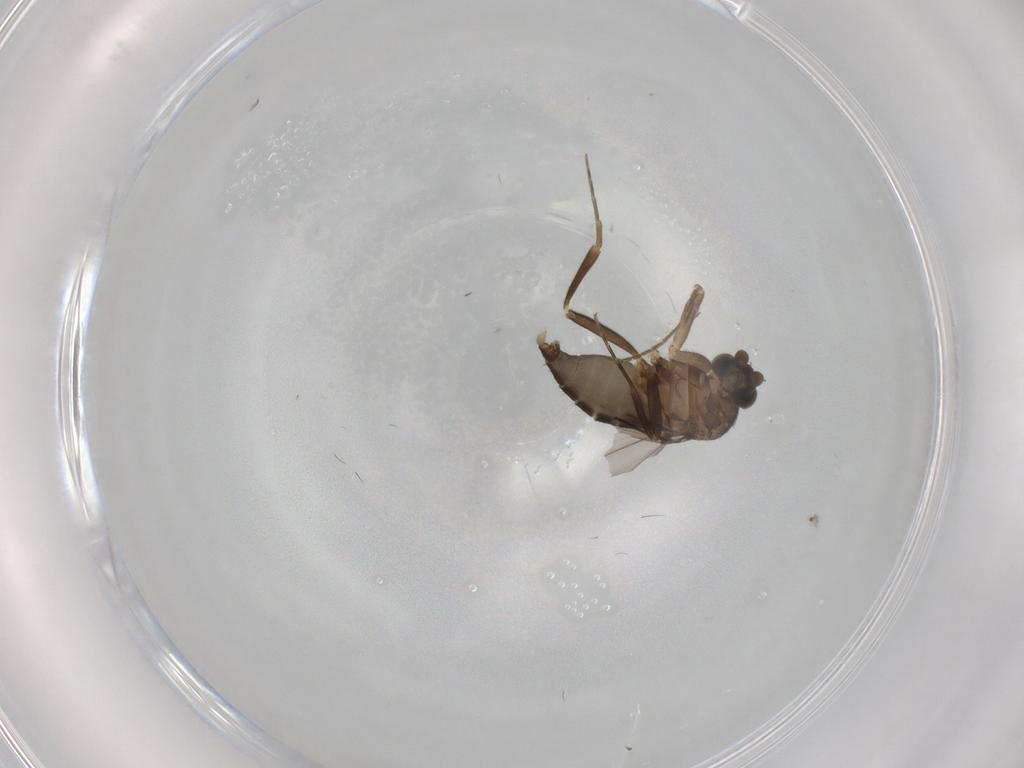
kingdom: Animalia
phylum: Arthropoda
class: Insecta
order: Diptera
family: Phoridae
